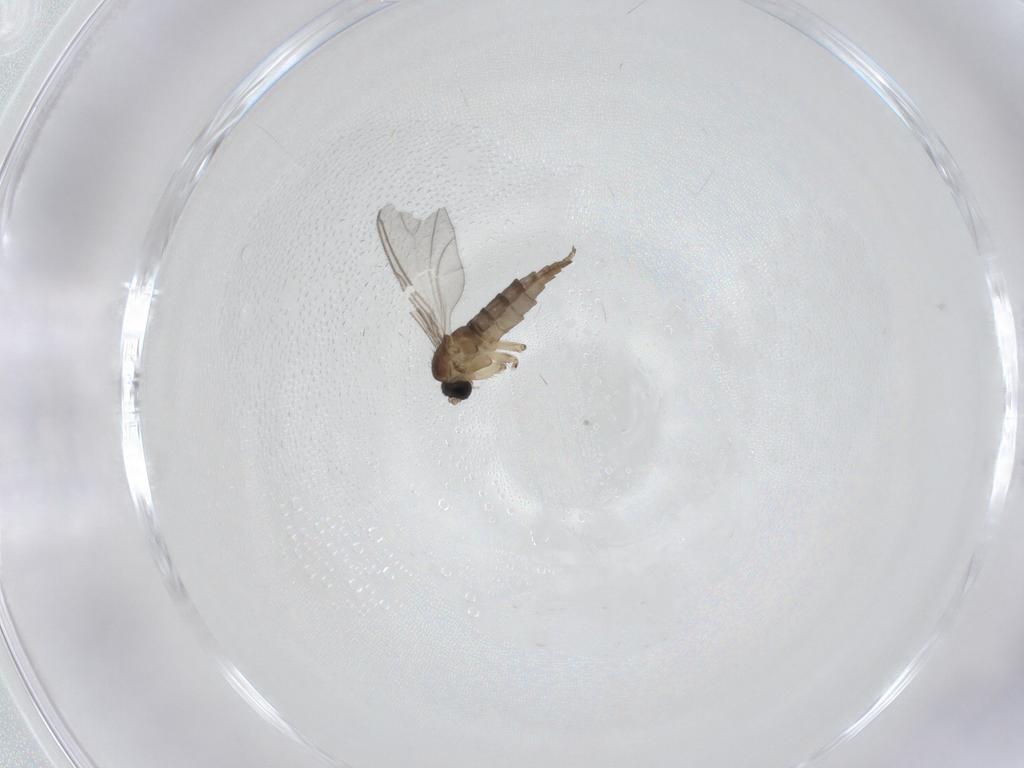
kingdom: Animalia
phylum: Arthropoda
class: Insecta
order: Diptera
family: Sciaridae
